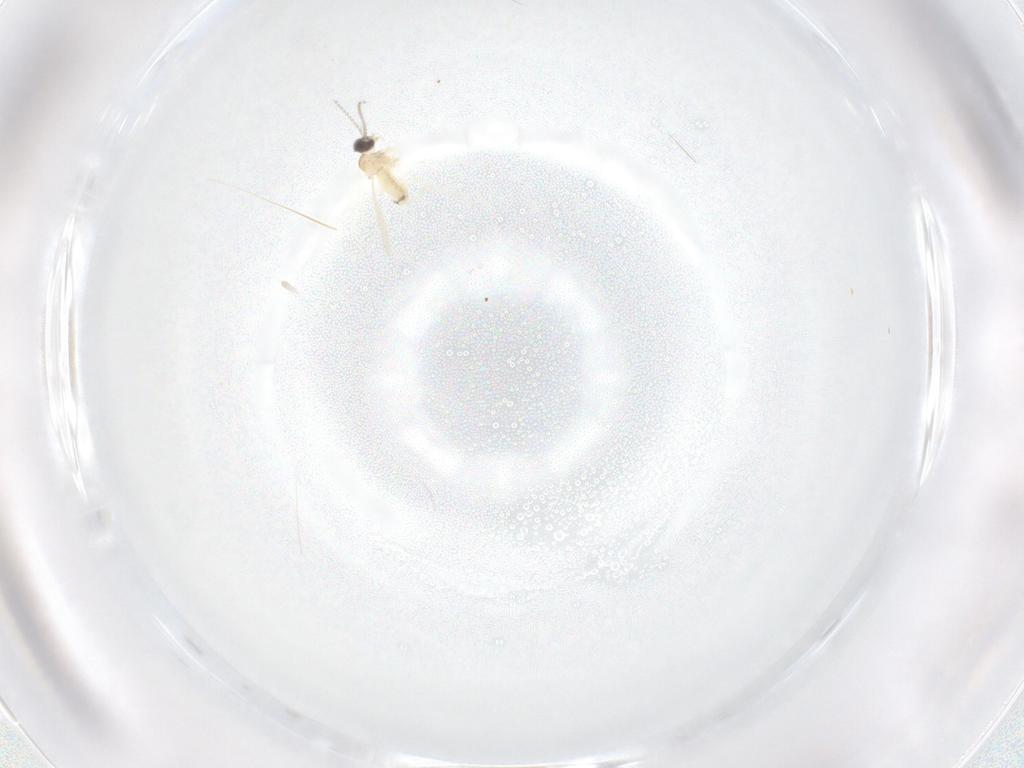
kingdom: Animalia
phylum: Arthropoda
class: Insecta
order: Diptera
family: Cecidomyiidae
